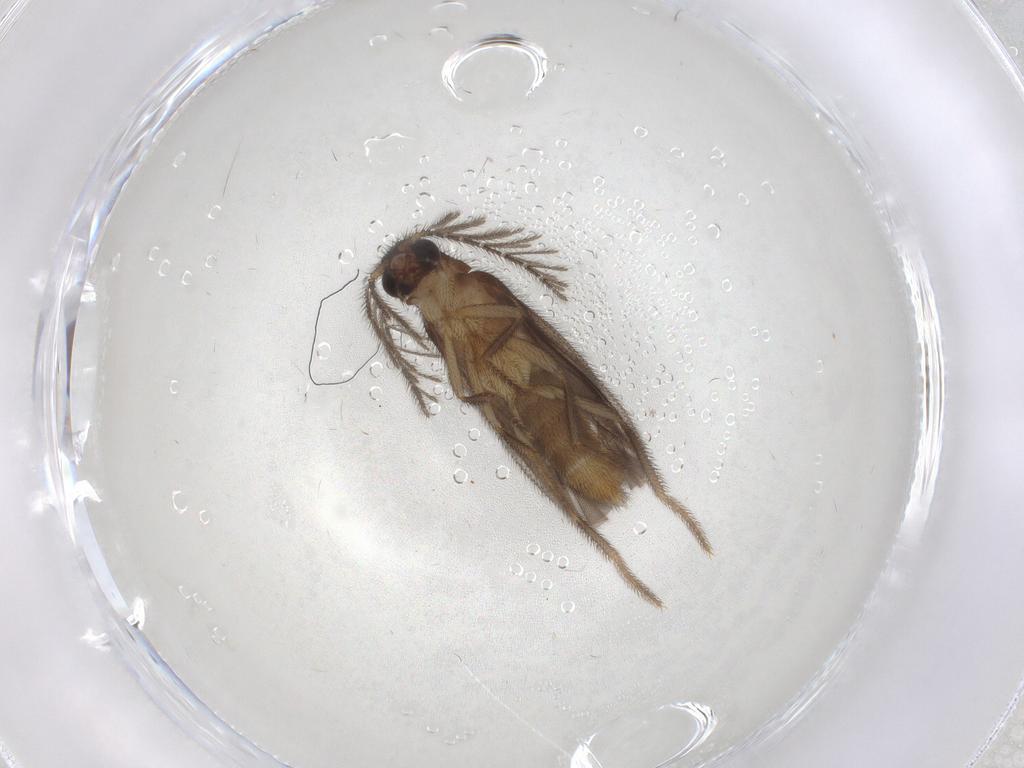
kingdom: Animalia
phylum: Arthropoda
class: Insecta
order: Coleoptera
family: Phengodidae
